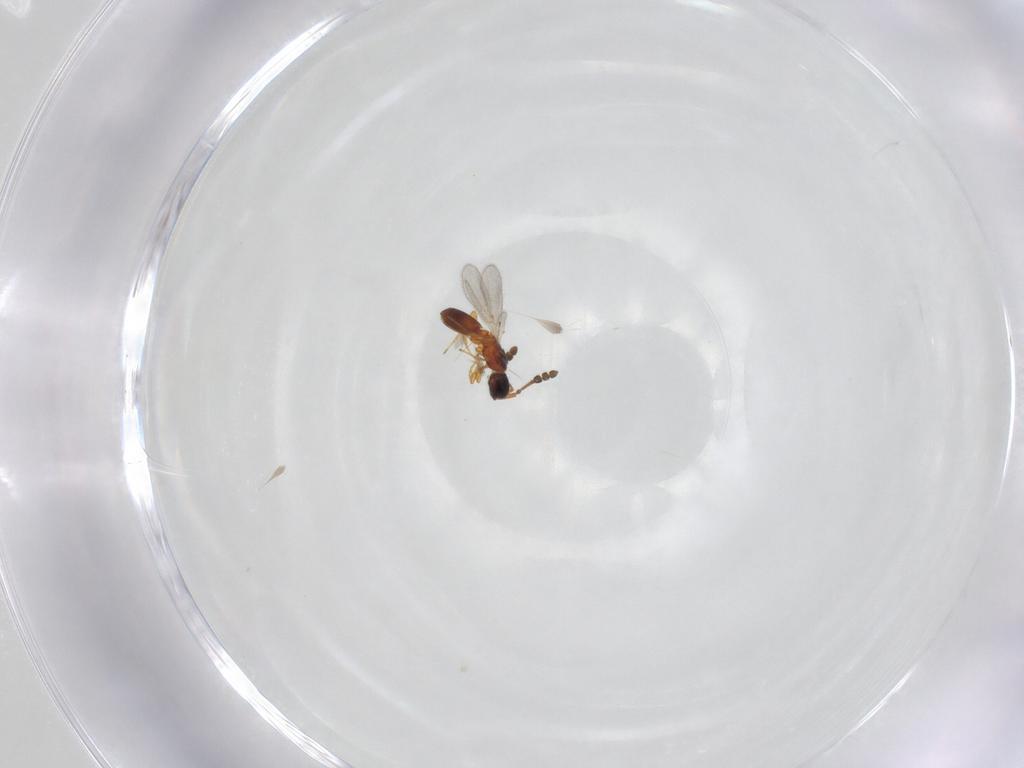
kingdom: Animalia
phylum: Arthropoda
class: Insecta
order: Hymenoptera
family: Diapriidae
